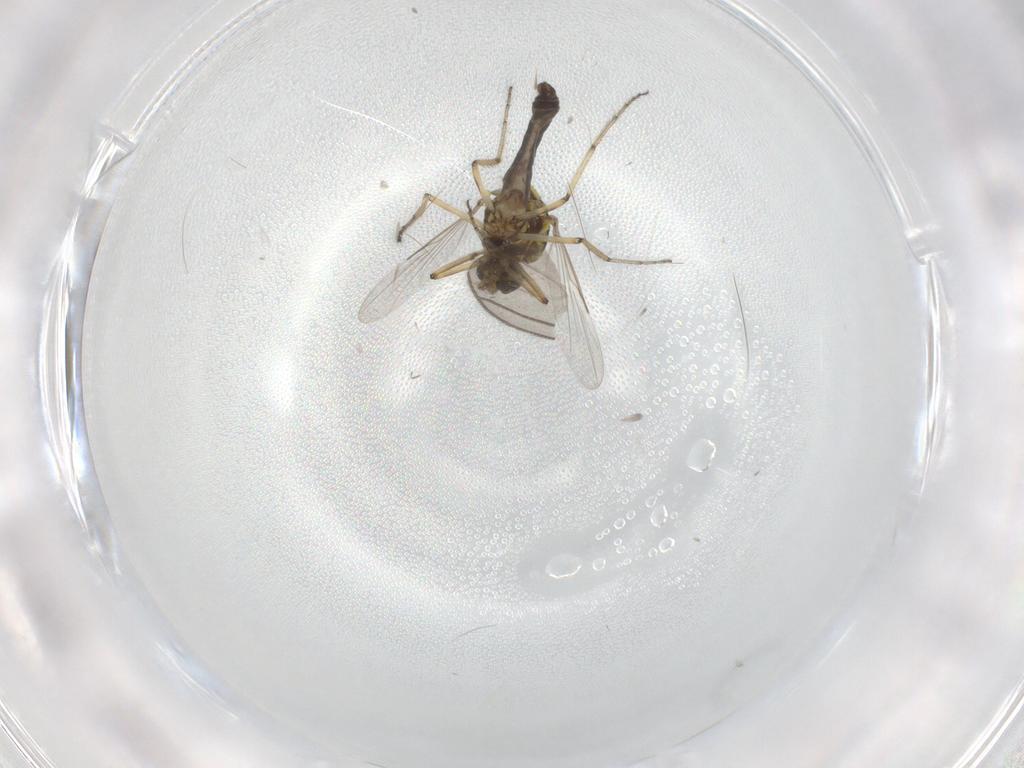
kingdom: Animalia
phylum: Arthropoda
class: Insecta
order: Diptera
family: Ceratopogonidae
